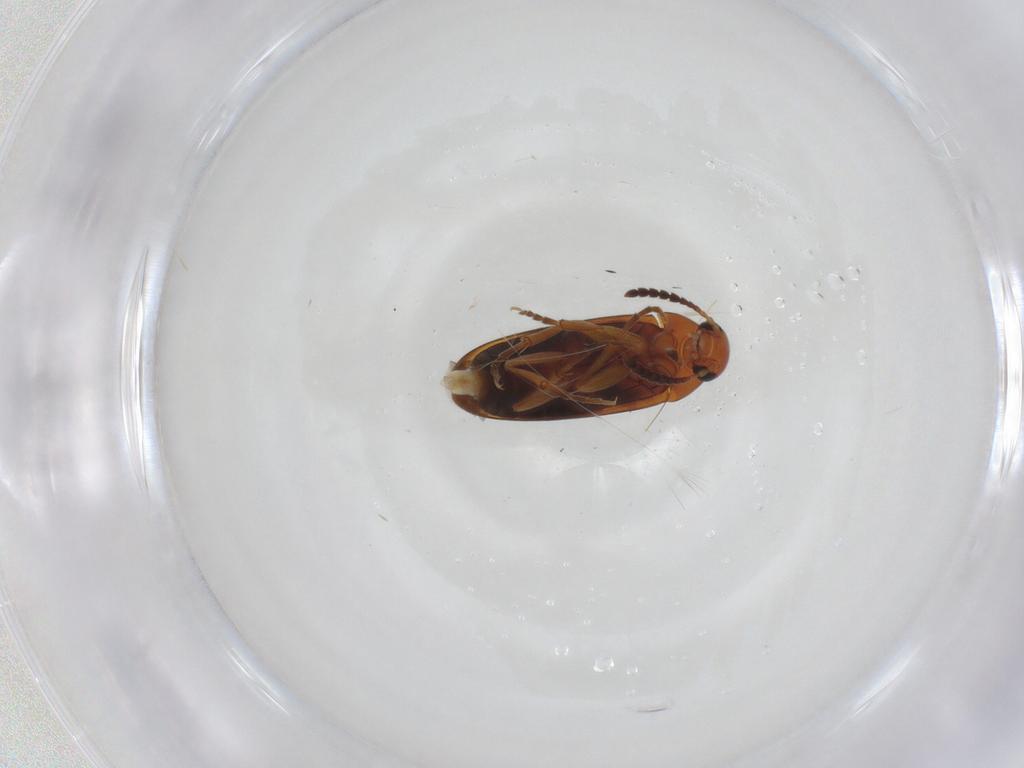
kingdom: Animalia
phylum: Arthropoda
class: Insecta
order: Coleoptera
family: Scraptiidae
